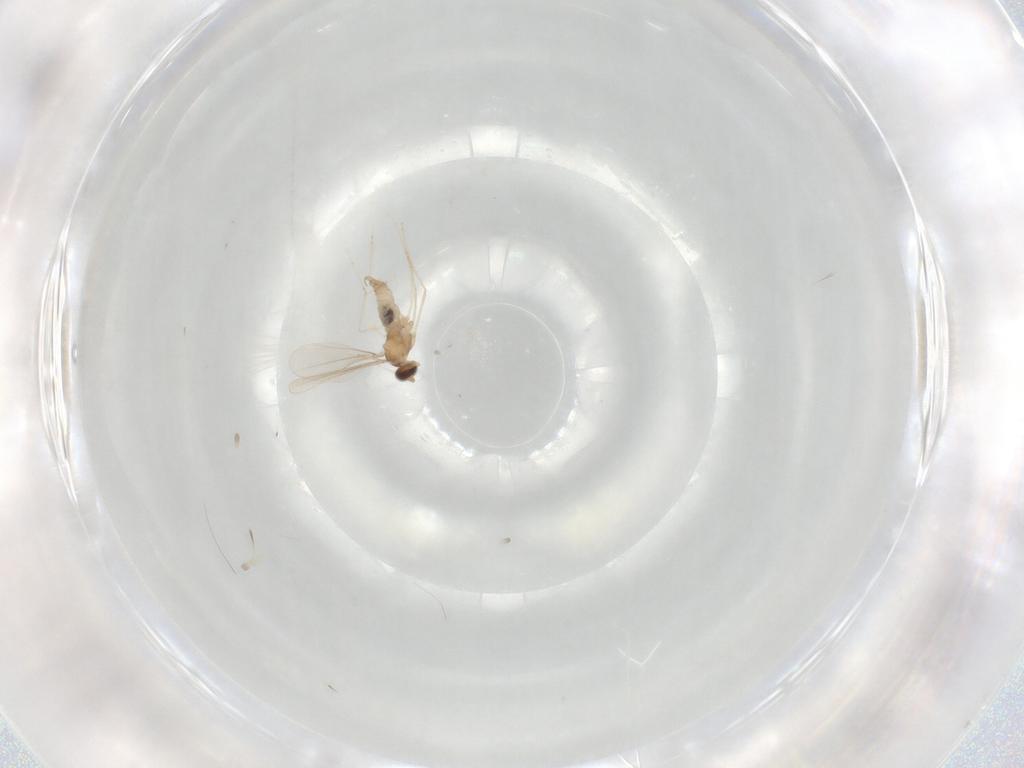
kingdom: Animalia
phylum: Arthropoda
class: Insecta
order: Diptera
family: Cecidomyiidae
